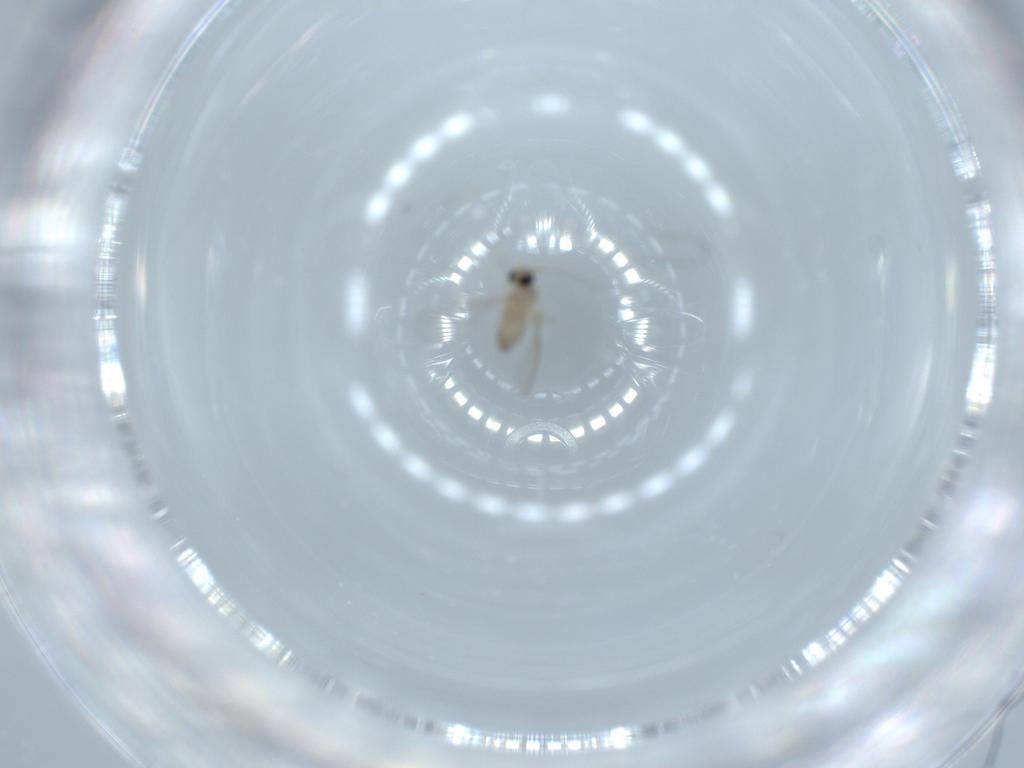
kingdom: Animalia
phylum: Arthropoda
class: Insecta
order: Diptera
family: Cecidomyiidae
